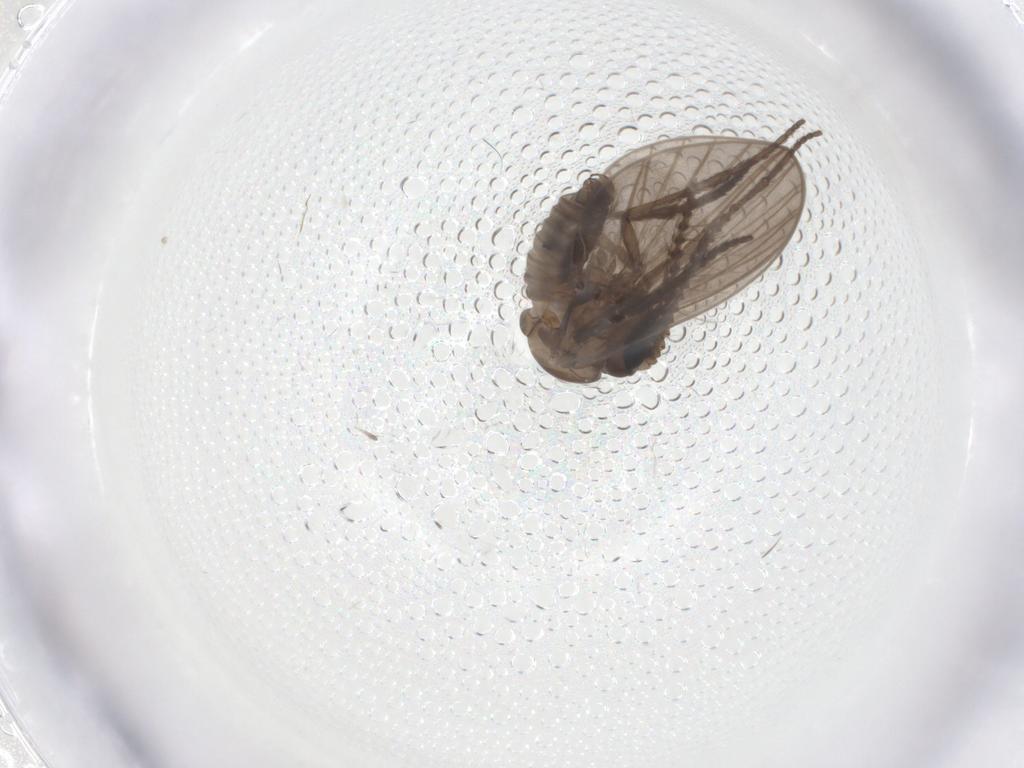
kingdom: Animalia
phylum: Arthropoda
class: Insecta
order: Diptera
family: Psychodidae
